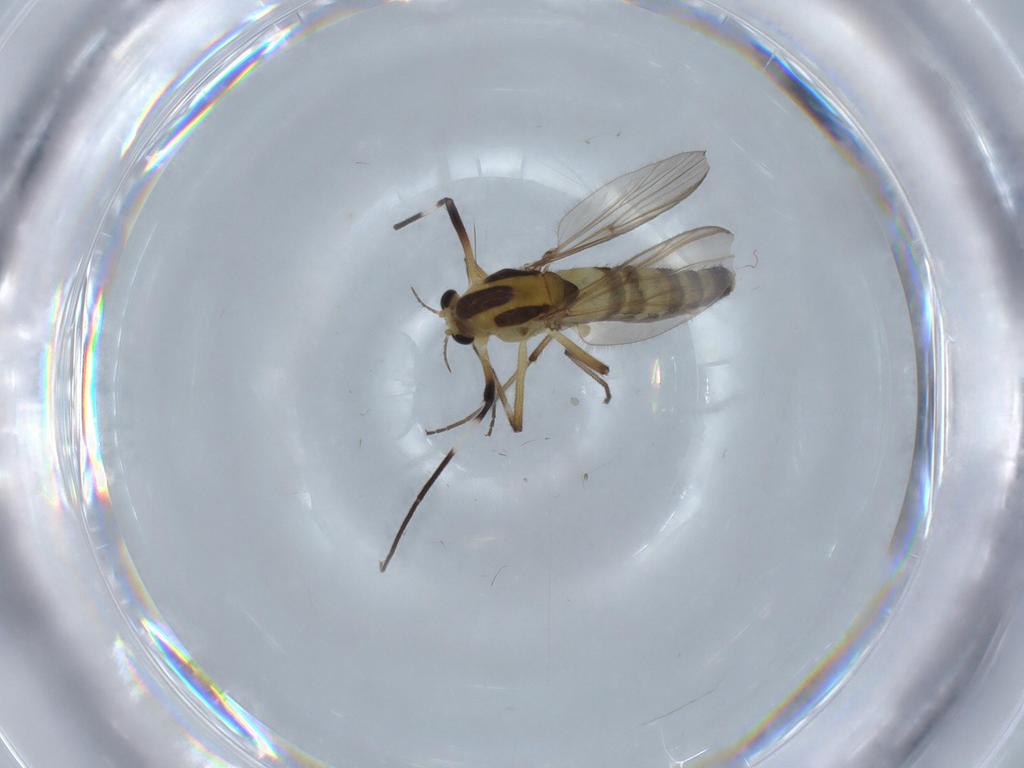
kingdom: Animalia
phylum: Arthropoda
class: Insecta
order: Diptera
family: Chironomidae
